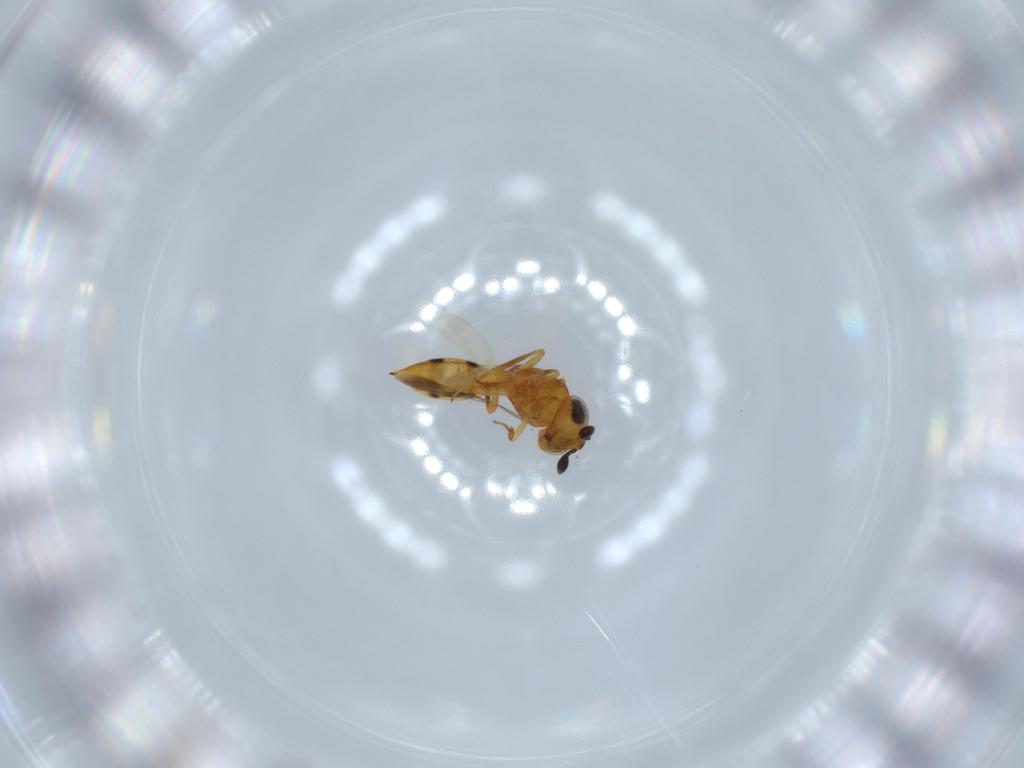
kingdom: Animalia
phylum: Arthropoda
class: Insecta
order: Hymenoptera
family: Scelionidae
